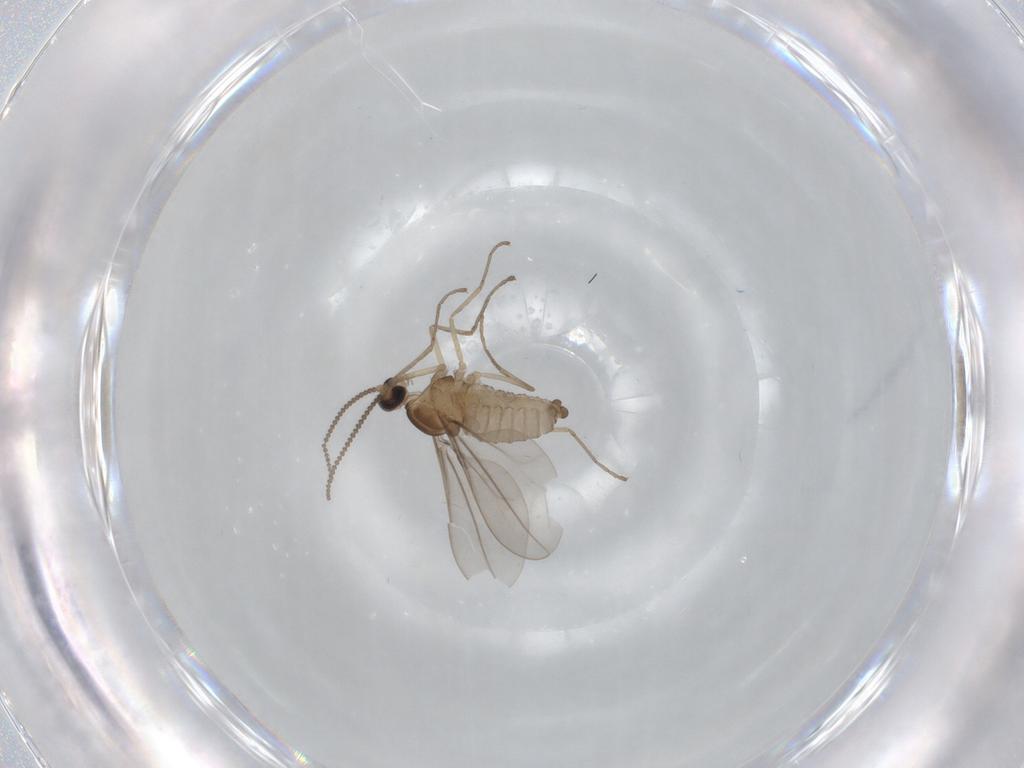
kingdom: Animalia
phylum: Arthropoda
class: Insecta
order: Diptera
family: Cecidomyiidae
